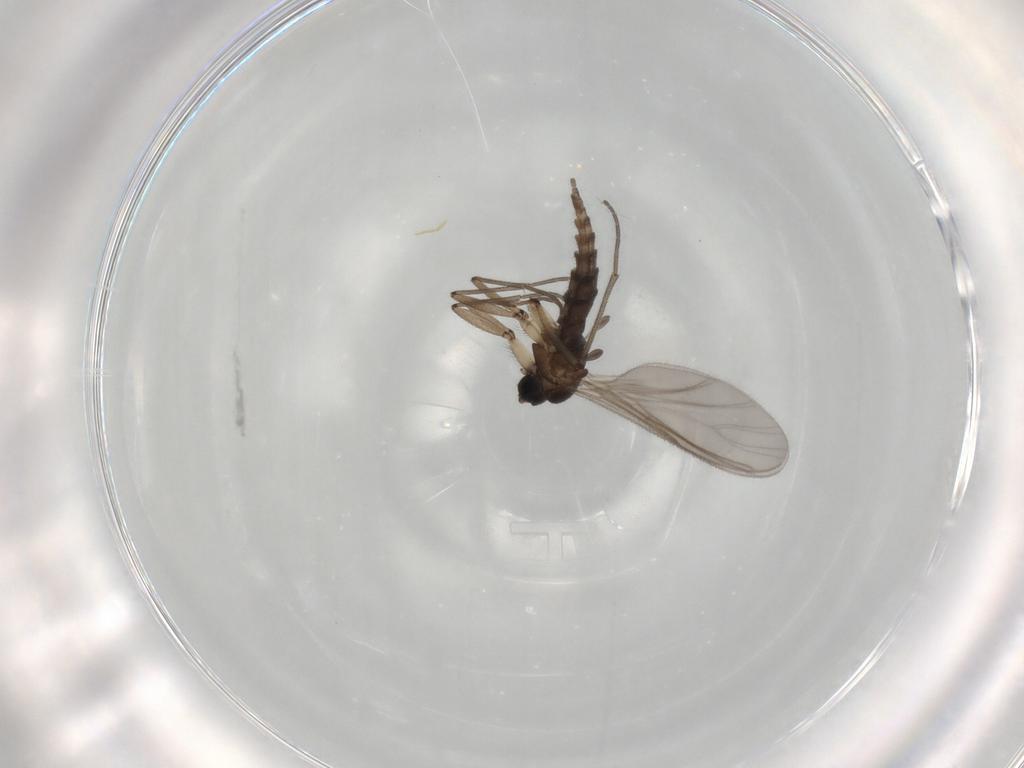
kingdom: Animalia
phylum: Arthropoda
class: Insecta
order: Diptera
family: Sciaridae
